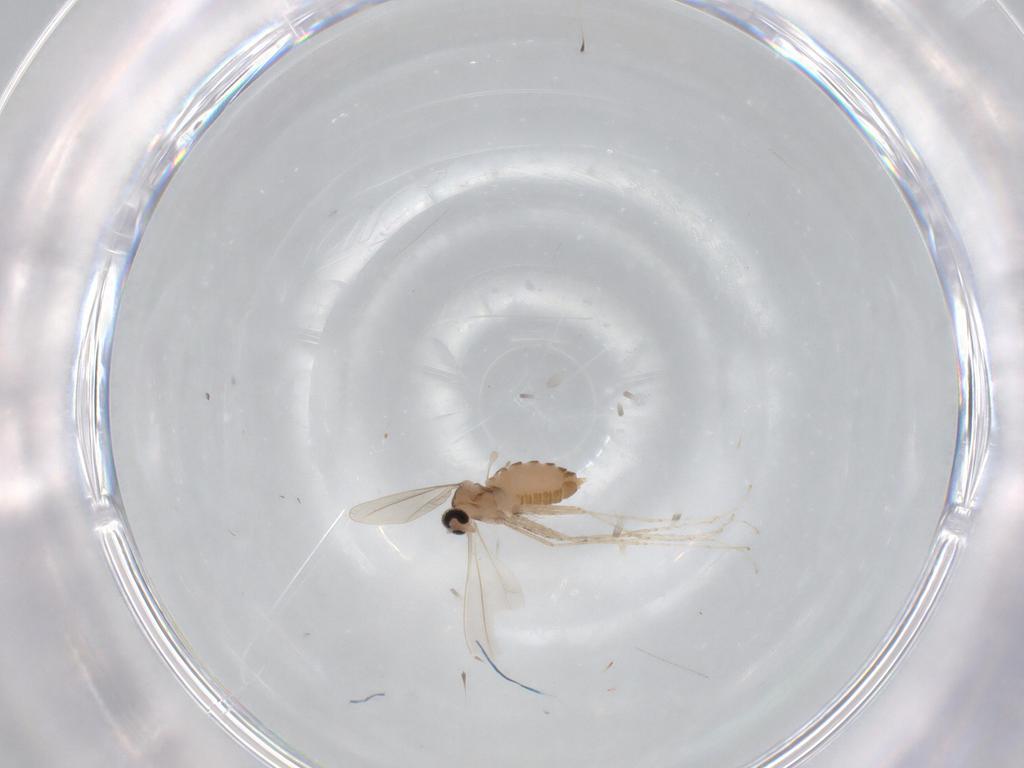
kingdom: Animalia
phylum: Arthropoda
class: Insecta
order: Diptera
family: Cecidomyiidae
